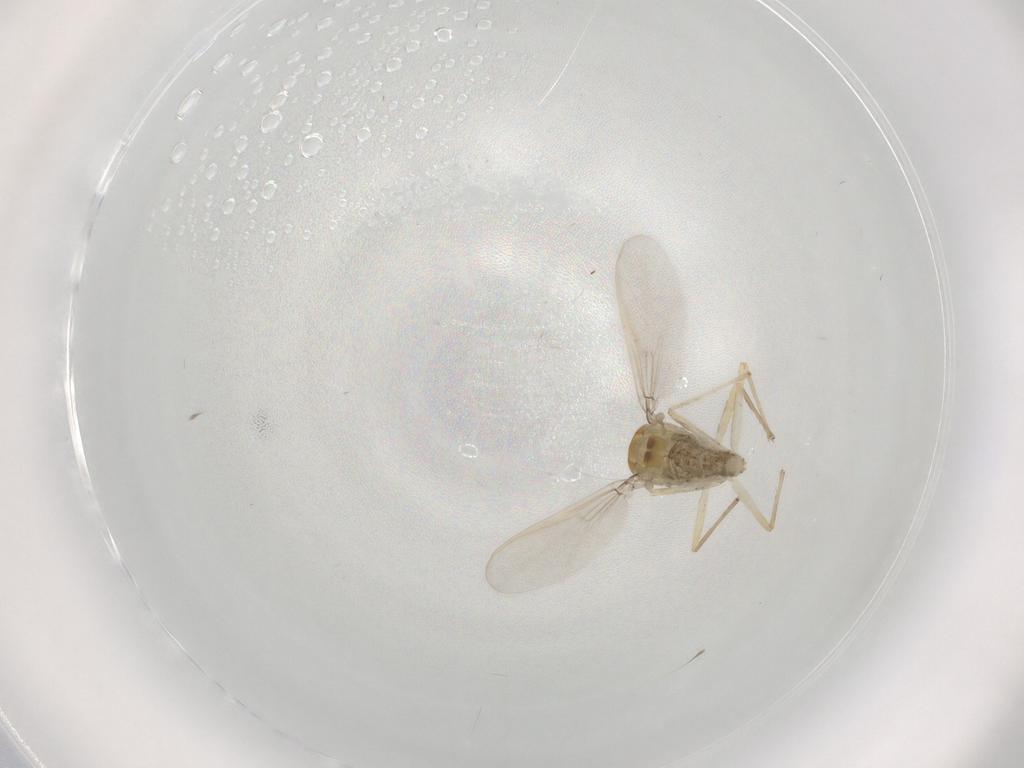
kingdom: Animalia
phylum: Arthropoda
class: Insecta
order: Diptera
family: Chironomidae
